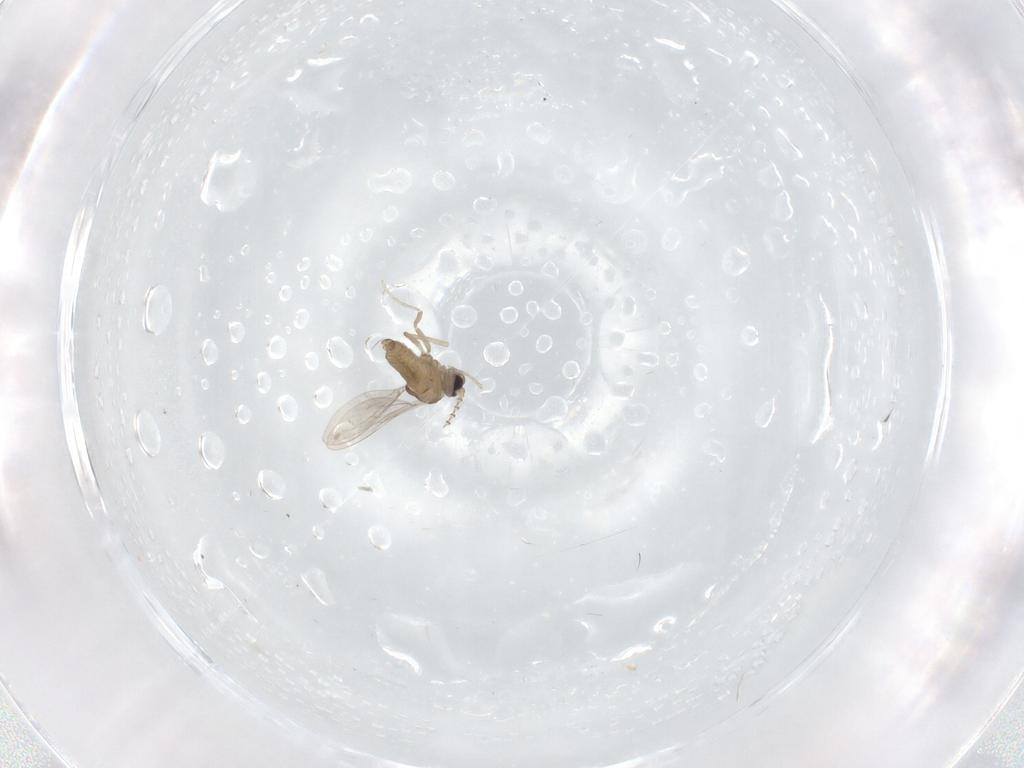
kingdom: Animalia
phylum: Arthropoda
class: Insecta
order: Diptera
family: Cecidomyiidae
